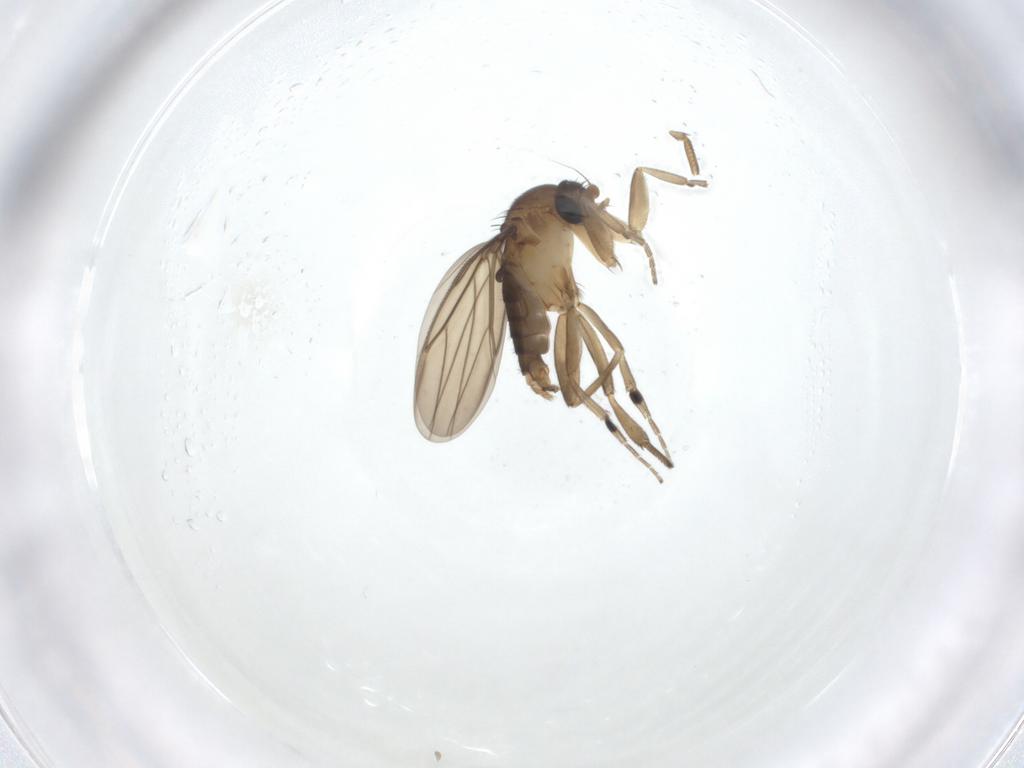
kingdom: Animalia
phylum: Arthropoda
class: Insecta
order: Diptera
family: Phoridae
